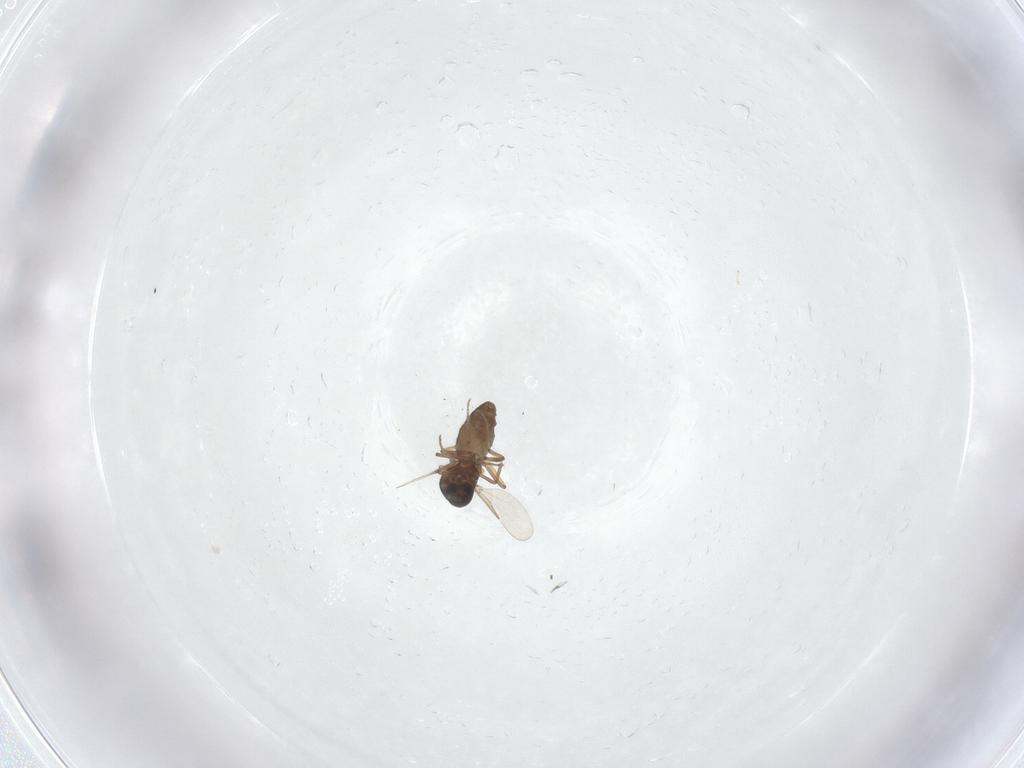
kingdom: Animalia
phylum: Arthropoda
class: Insecta
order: Diptera
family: Ceratopogonidae
